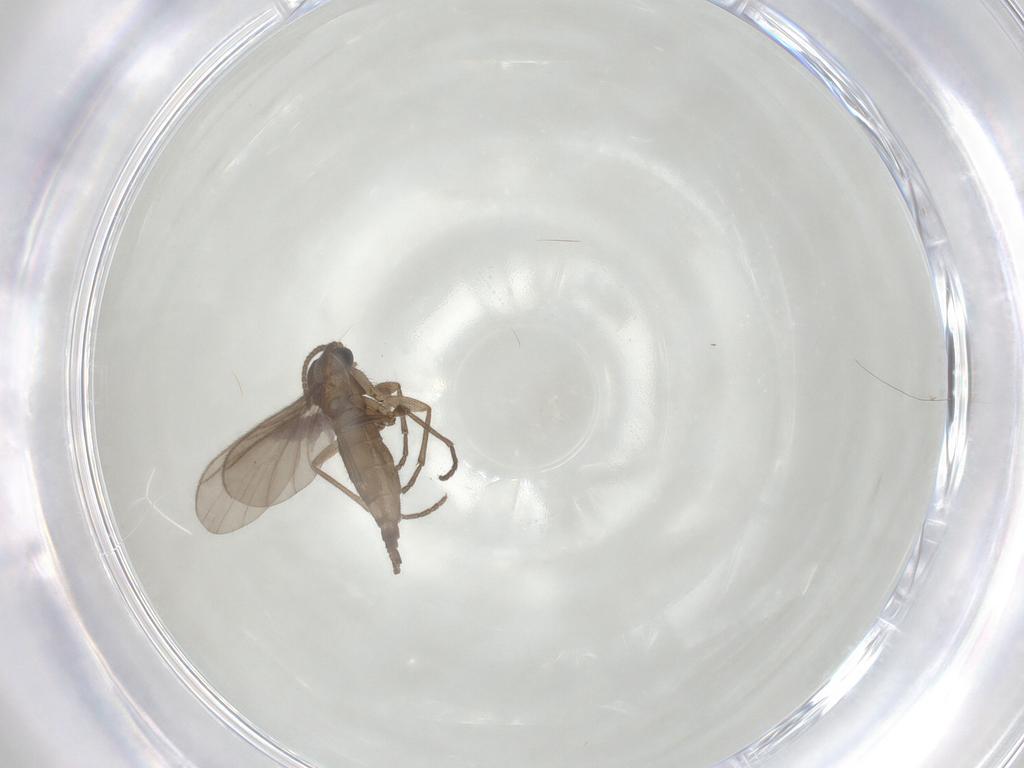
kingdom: Animalia
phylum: Arthropoda
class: Insecta
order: Diptera
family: Sciaridae
